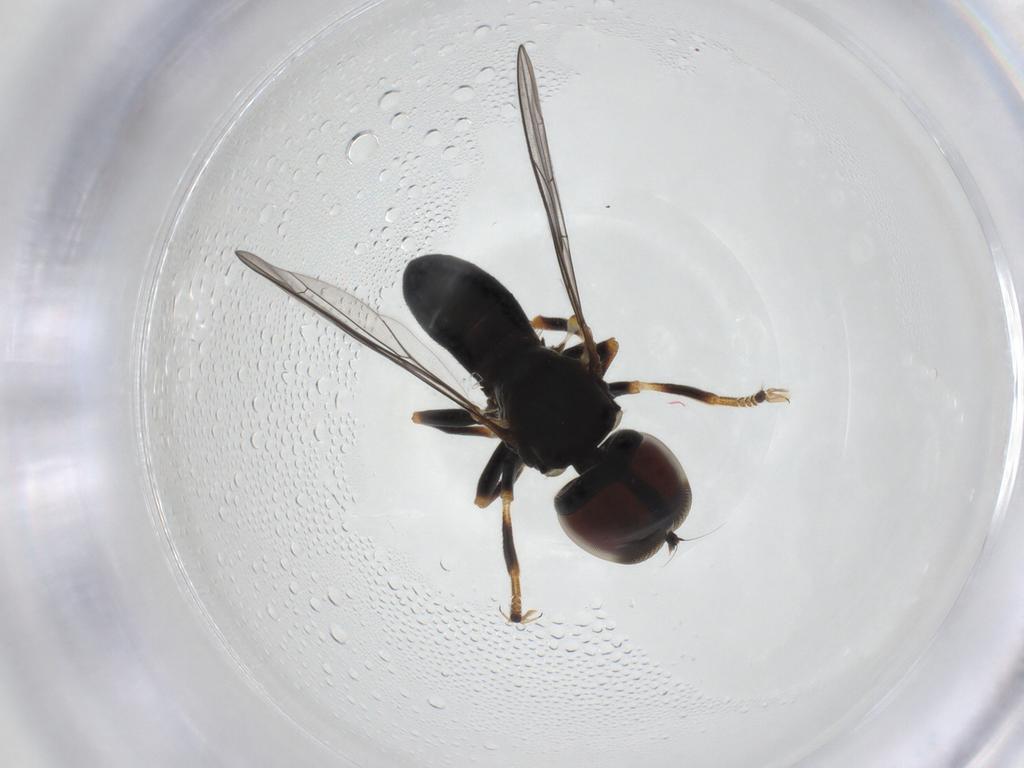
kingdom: Animalia
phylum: Arthropoda
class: Insecta
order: Diptera
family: Pipunculidae
